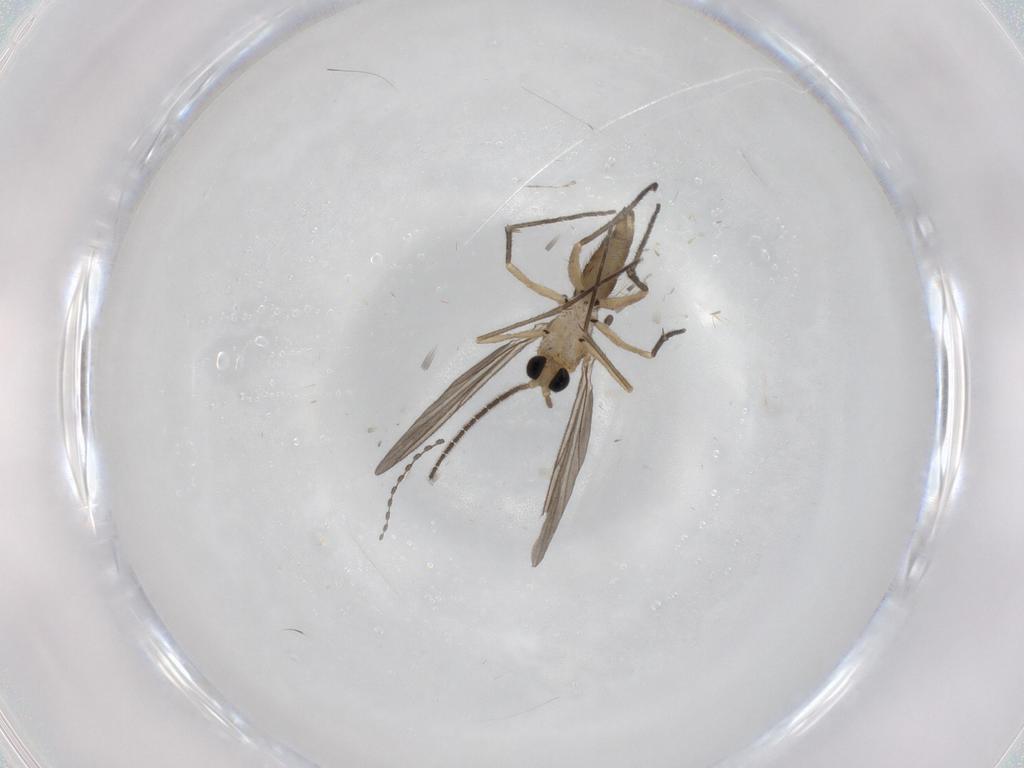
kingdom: Animalia
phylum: Arthropoda
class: Insecta
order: Diptera
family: Sciaridae
